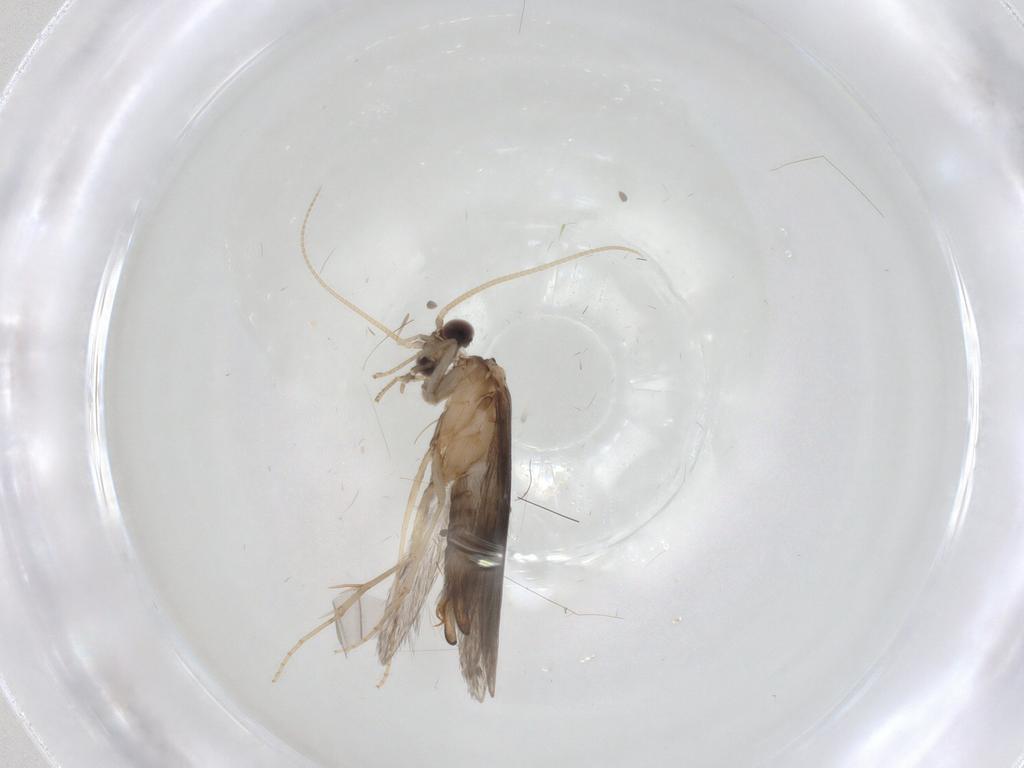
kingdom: Animalia
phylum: Arthropoda
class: Insecta
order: Trichoptera
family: Hydroptilidae
